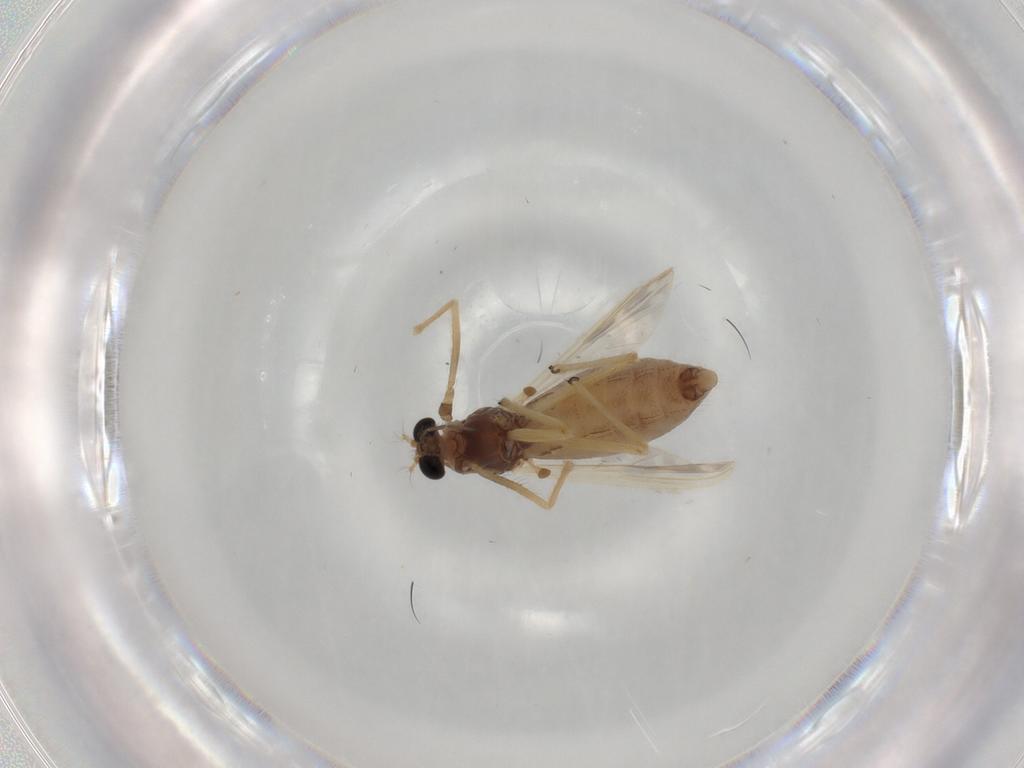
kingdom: Animalia
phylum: Arthropoda
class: Insecta
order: Diptera
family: Chironomidae
